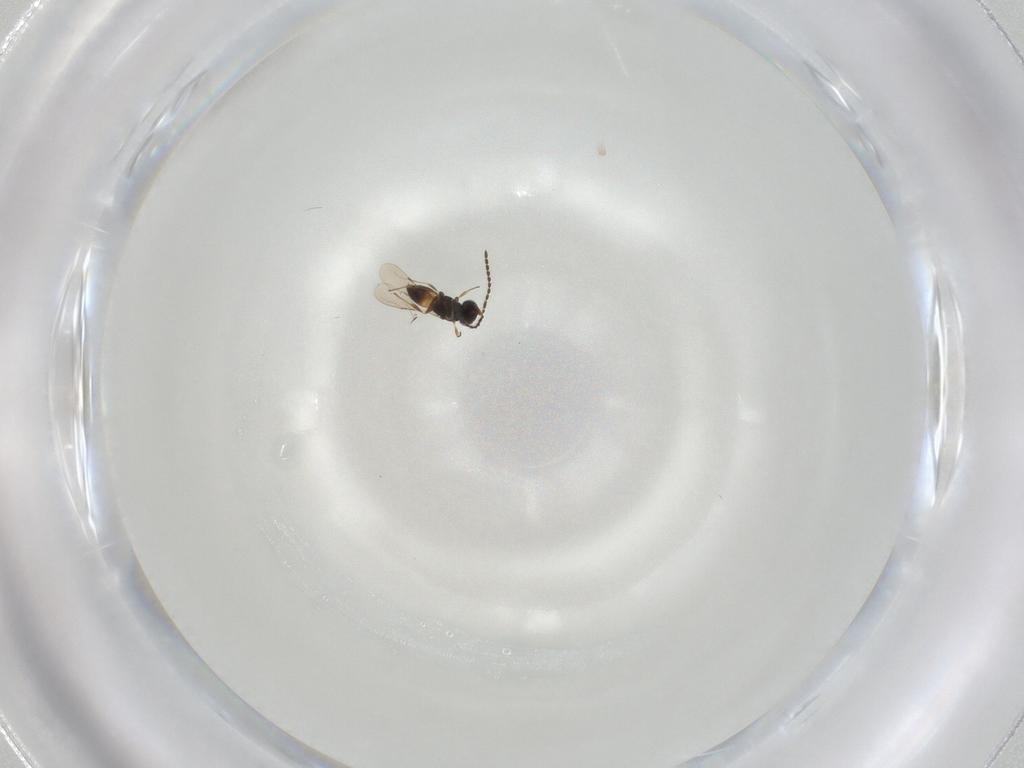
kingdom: Animalia
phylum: Arthropoda
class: Insecta
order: Hymenoptera
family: Mymaridae
